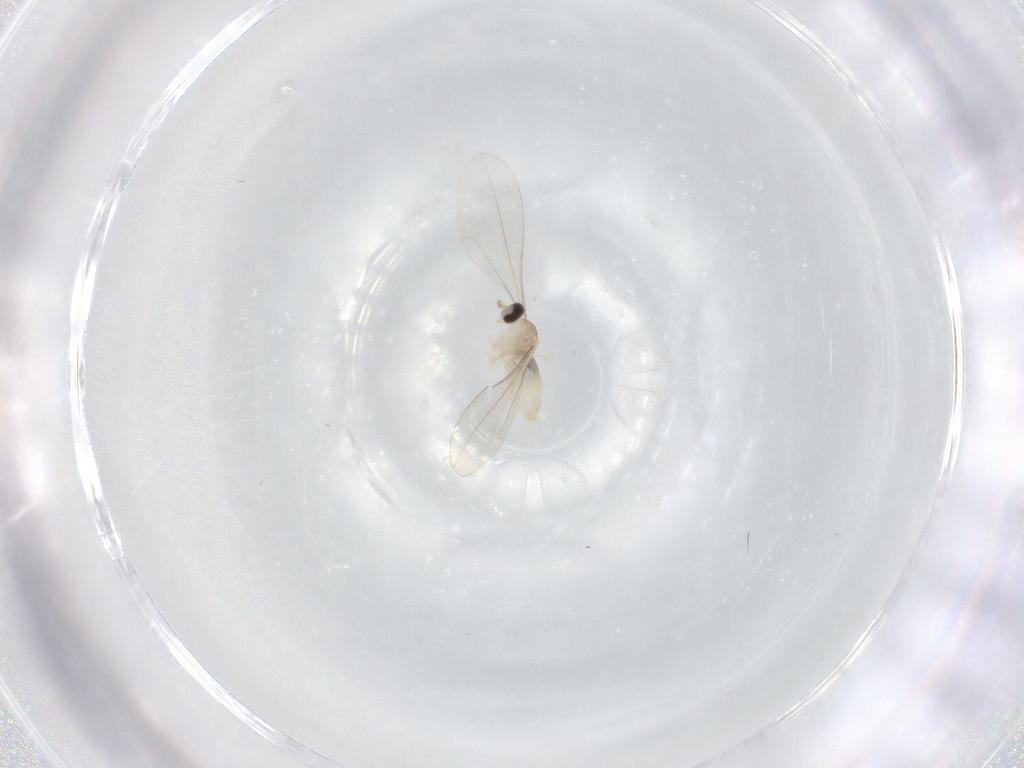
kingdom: Animalia
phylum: Arthropoda
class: Insecta
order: Diptera
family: Cecidomyiidae
